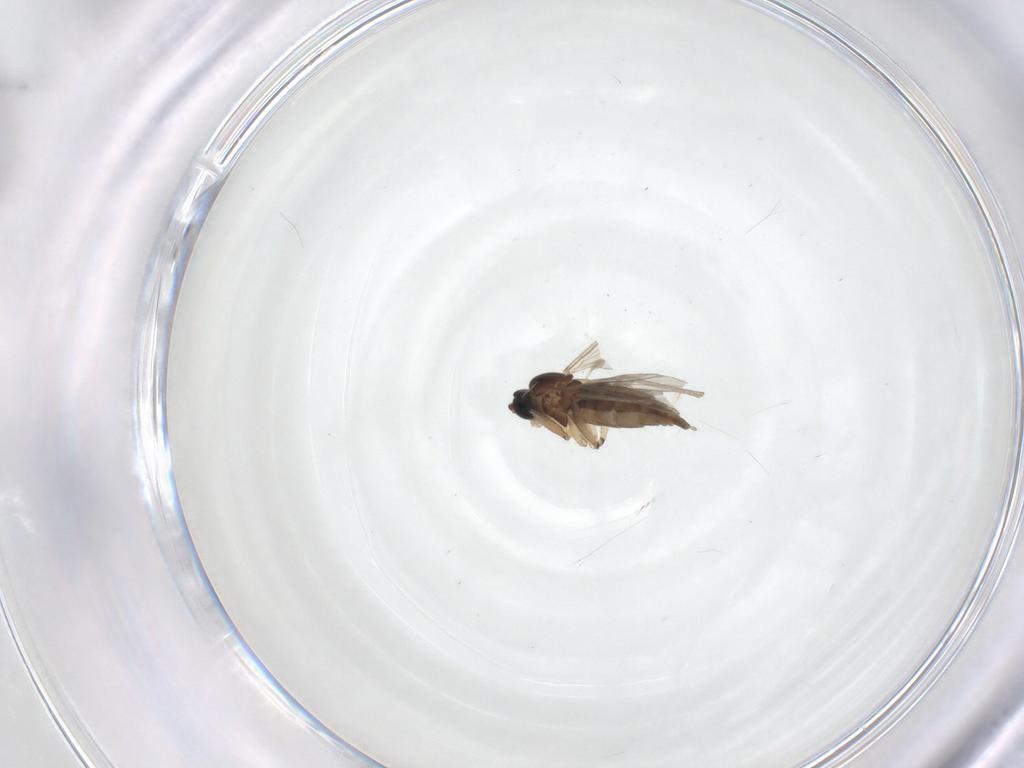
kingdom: Animalia
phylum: Arthropoda
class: Insecta
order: Diptera
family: Sciaridae
